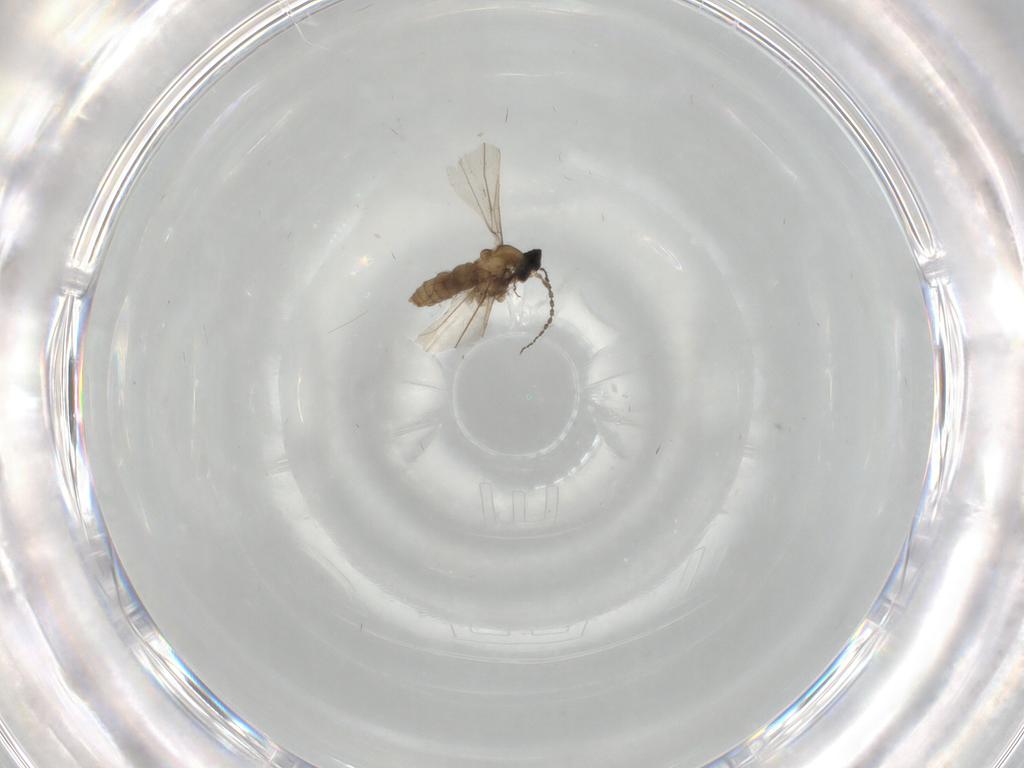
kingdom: Animalia
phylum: Arthropoda
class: Insecta
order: Diptera
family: Cecidomyiidae
